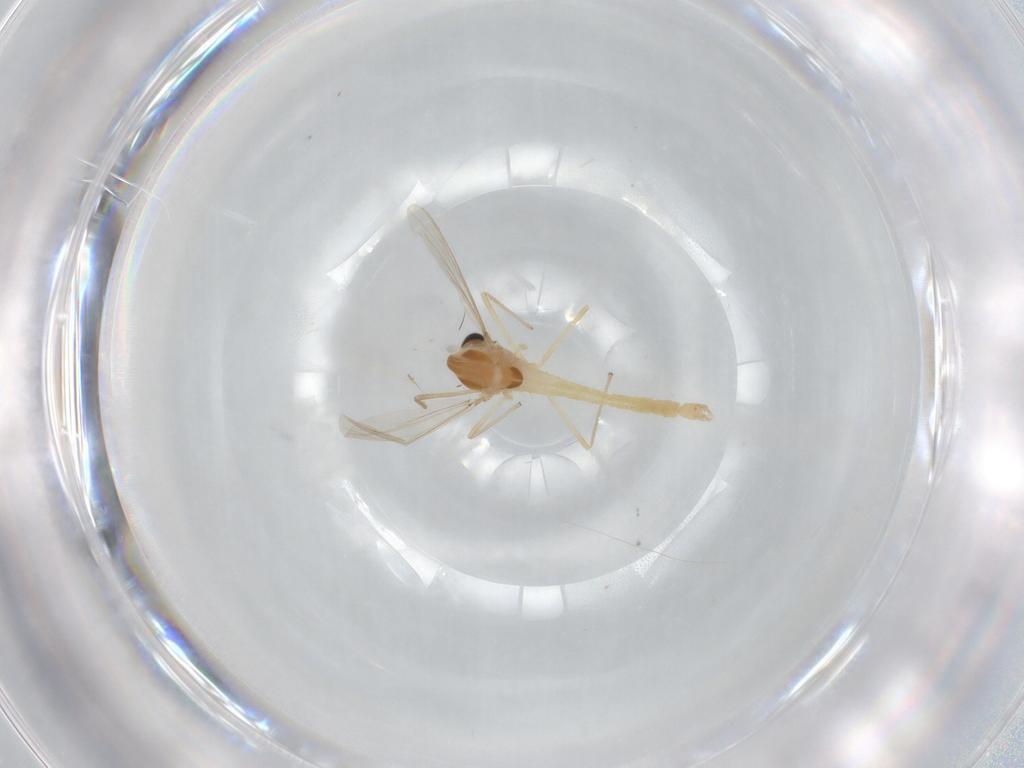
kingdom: Animalia
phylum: Arthropoda
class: Insecta
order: Diptera
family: Chironomidae
